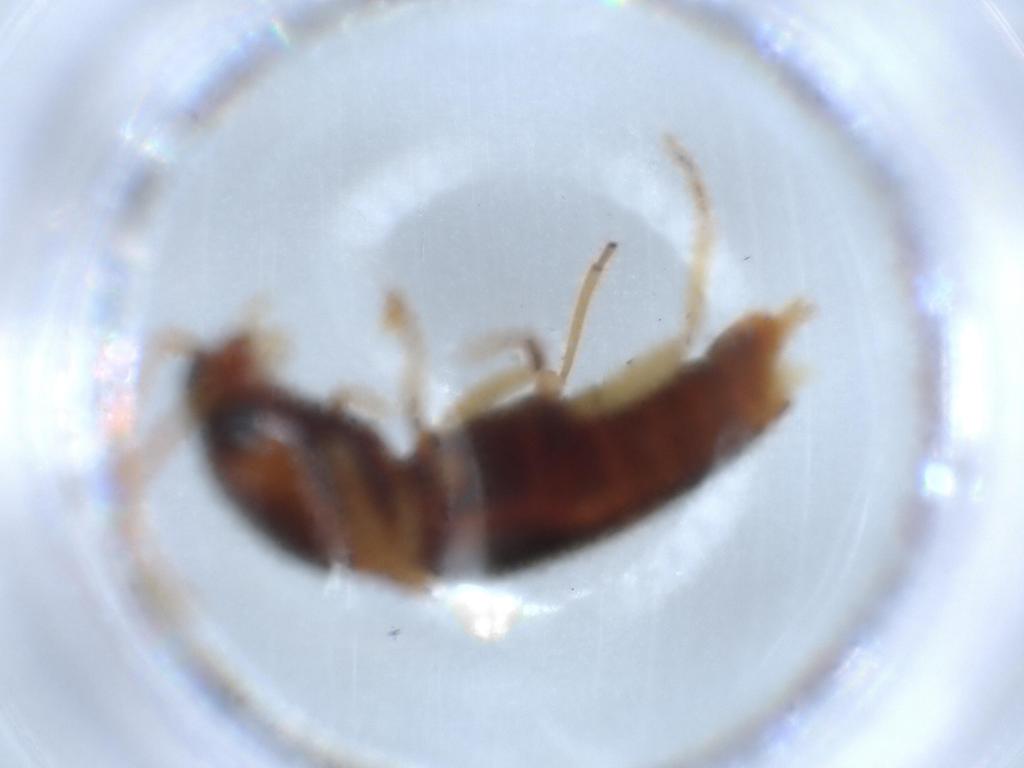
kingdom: Animalia
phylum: Arthropoda
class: Insecta
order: Coleoptera
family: Elateridae
